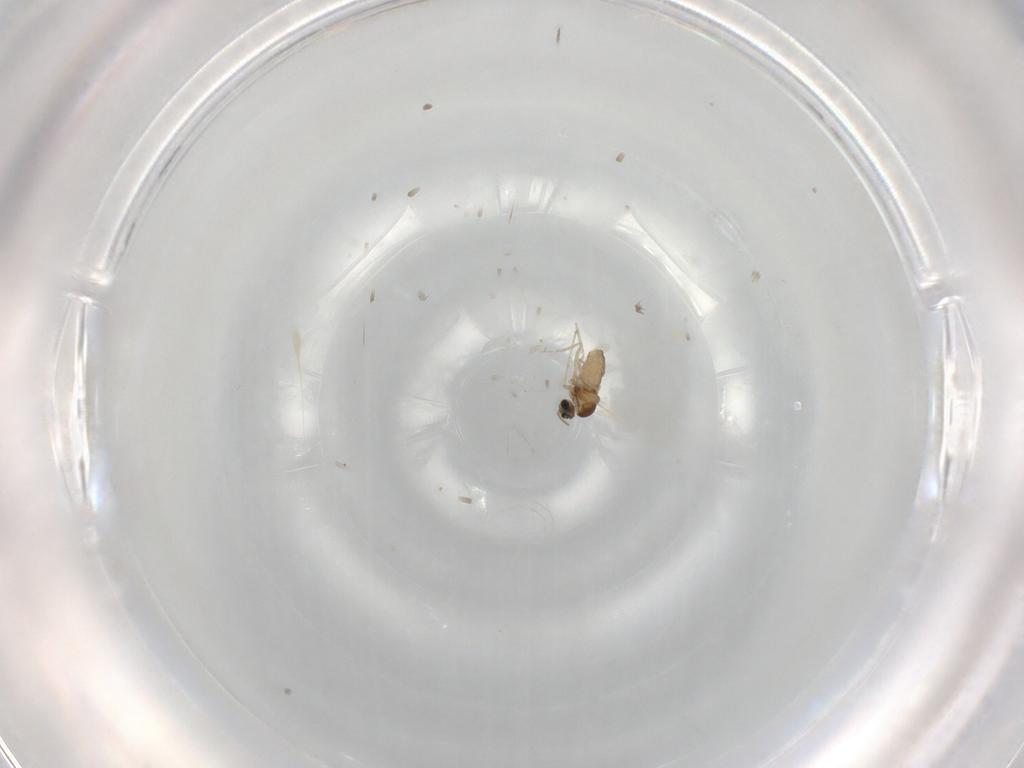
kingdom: Animalia
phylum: Arthropoda
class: Insecta
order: Diptera
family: Cecidomyiidae
